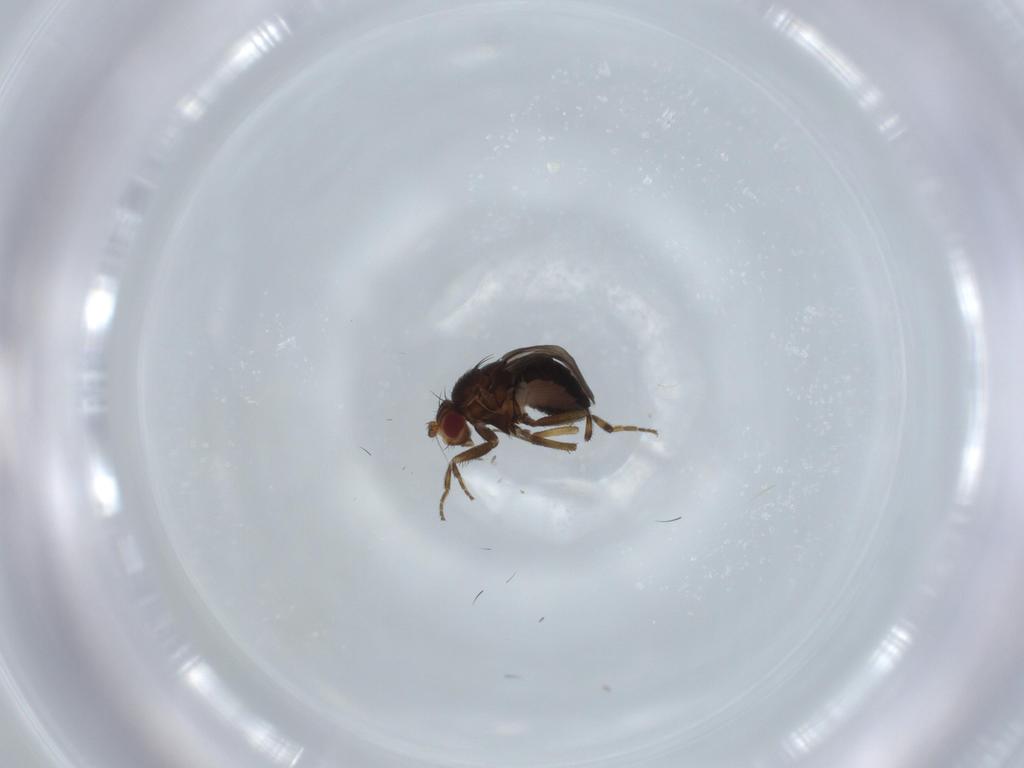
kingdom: Animalia
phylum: Arthropoda
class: Insecta
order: Diptera
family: Sphaeroceridae
